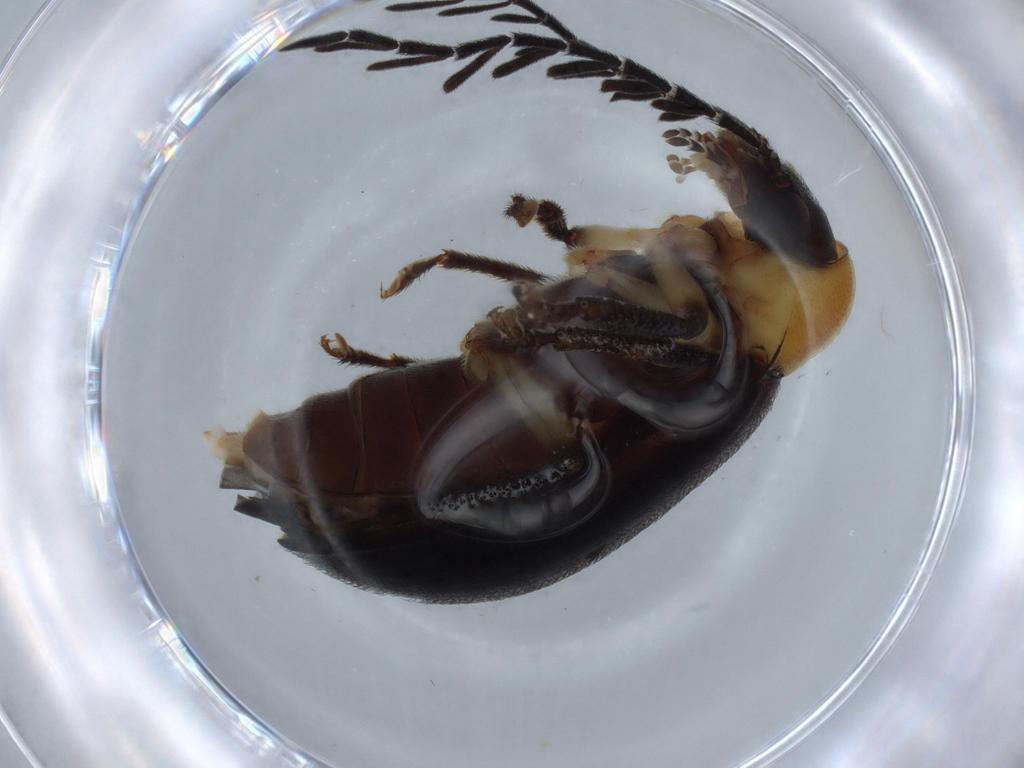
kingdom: Animalia
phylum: Arthropoda
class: Insecta
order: Coleoptera
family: Ptilodactylidae
